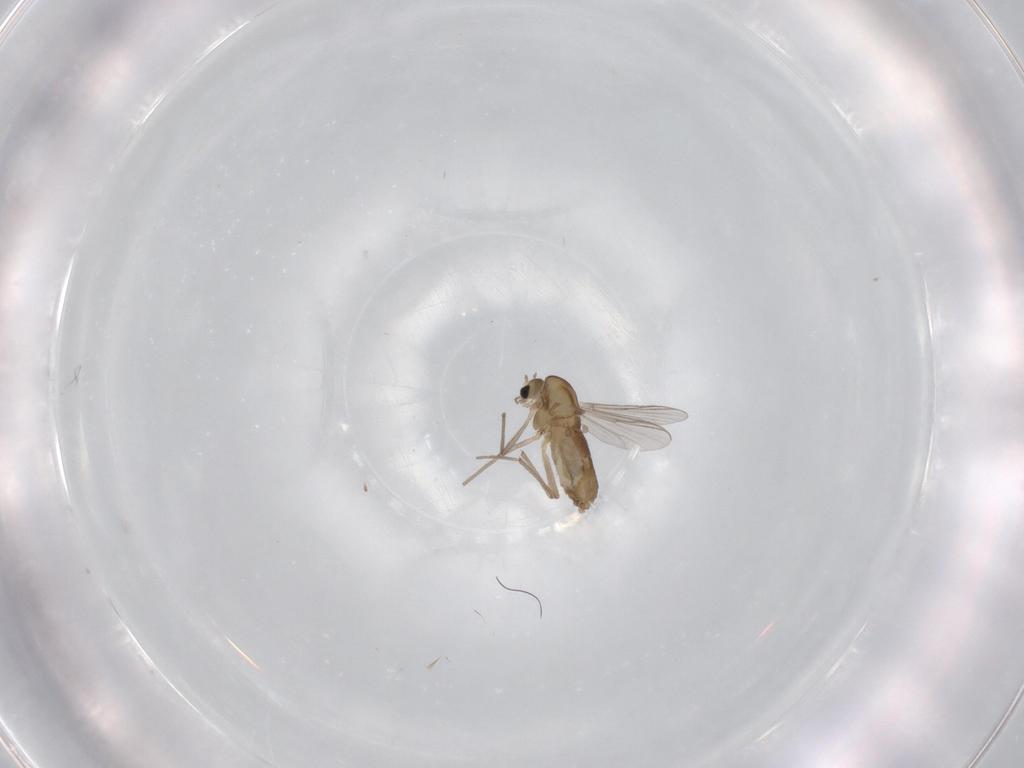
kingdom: Animalia
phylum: Arthropoda
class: Insecta
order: Diptera
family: Chironomidae
